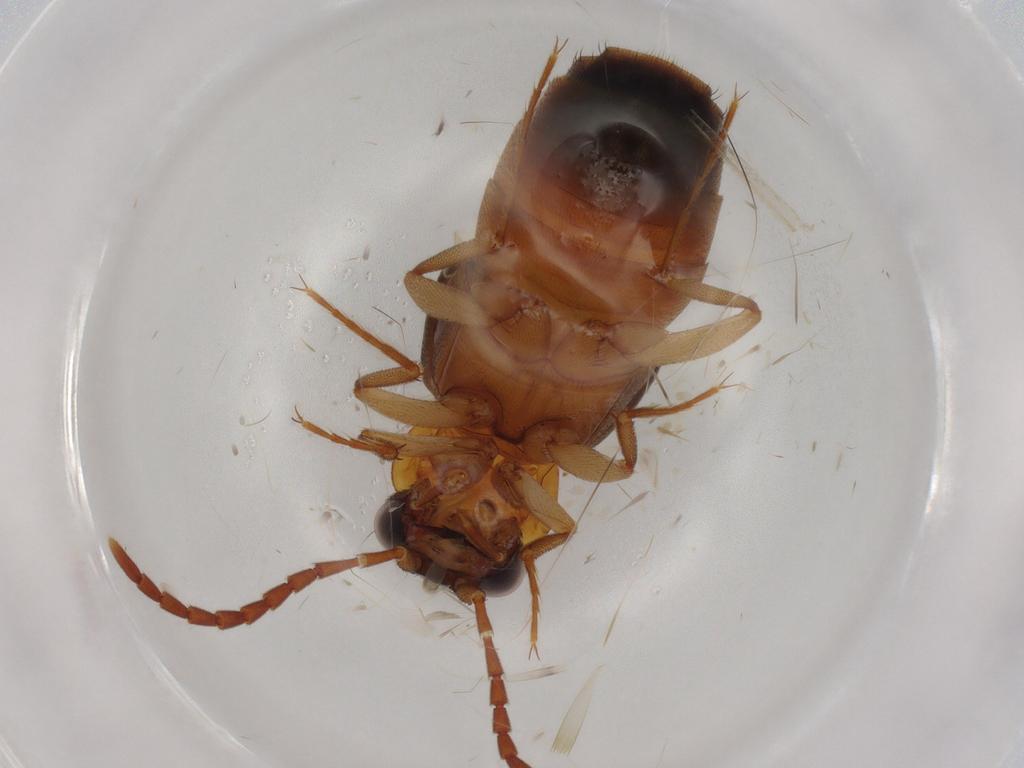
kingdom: Animalia
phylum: Arthropoda
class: Insecta
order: Coleoptera
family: Staphylinidae
